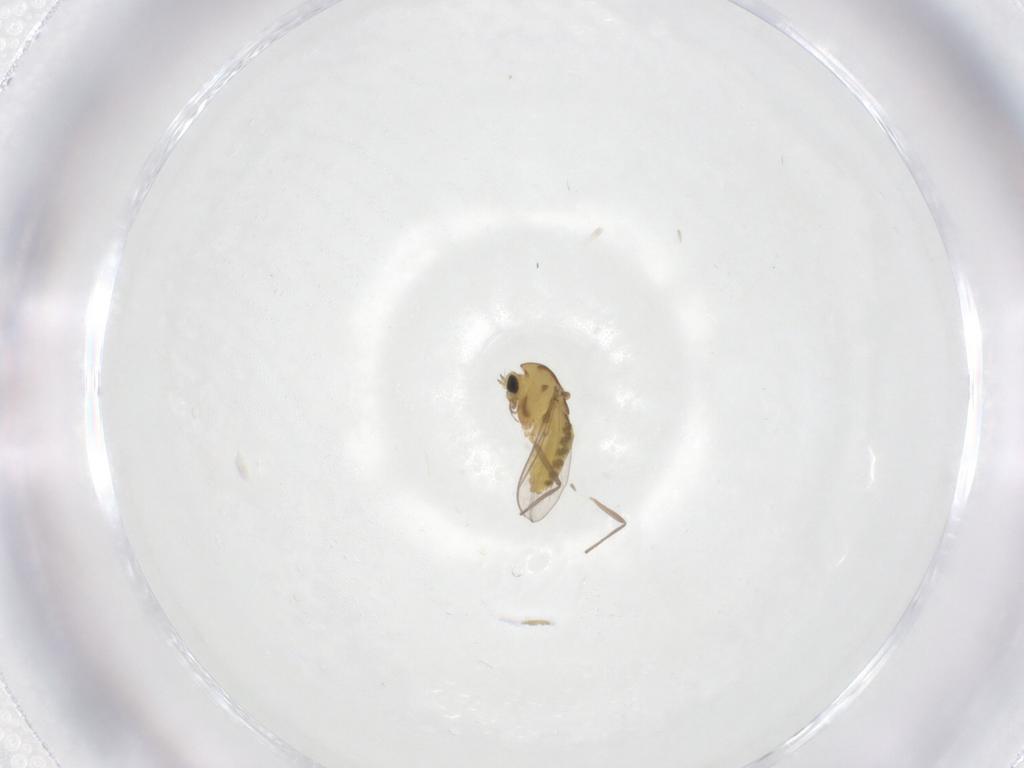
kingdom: Animalia
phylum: Arthropoda
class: Insecta
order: Diptera
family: Chironomidae
